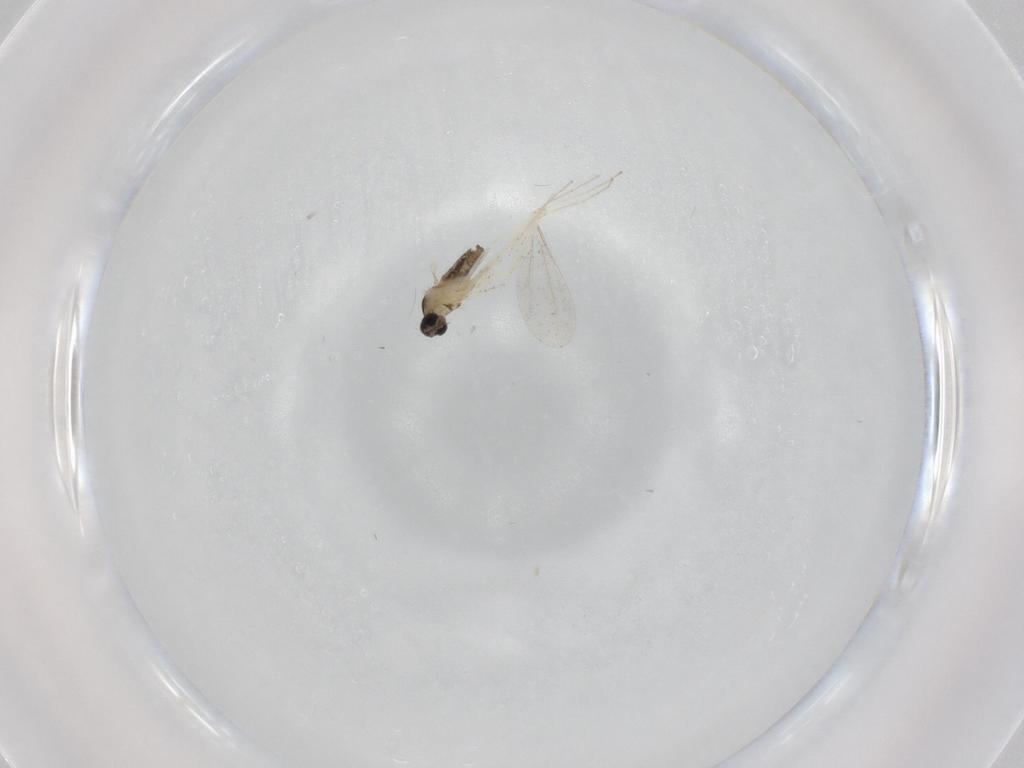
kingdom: Animalia
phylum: Arthropoda
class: Insecta
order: Diptera
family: Cecidomyiidae
